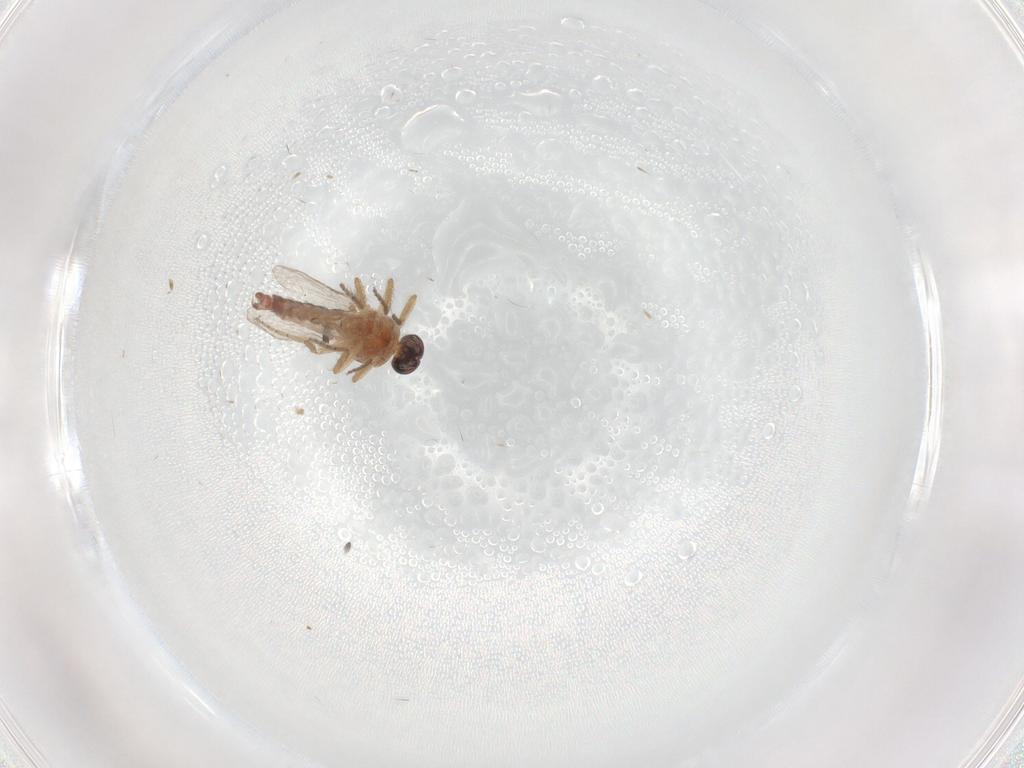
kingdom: Animalia
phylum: Arthropoda
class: Insecta
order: Diptera
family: Ceratopogonidae
